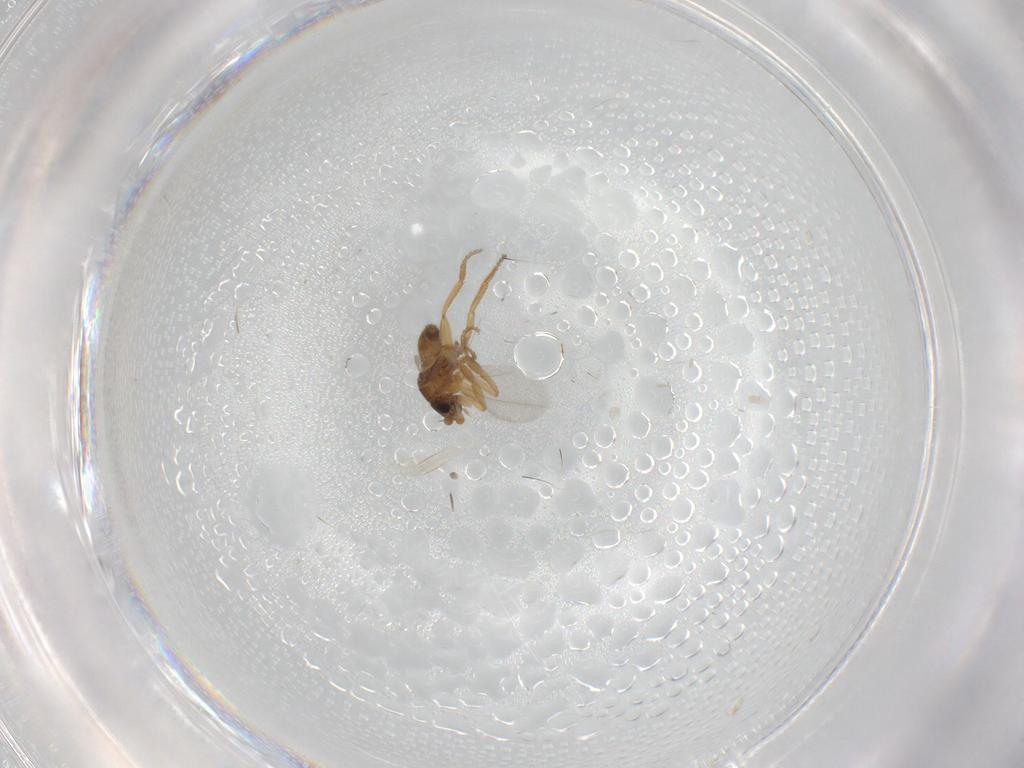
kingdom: Animalia
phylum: Arthropoda
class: Insecta
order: Diptera
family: Phoridae
